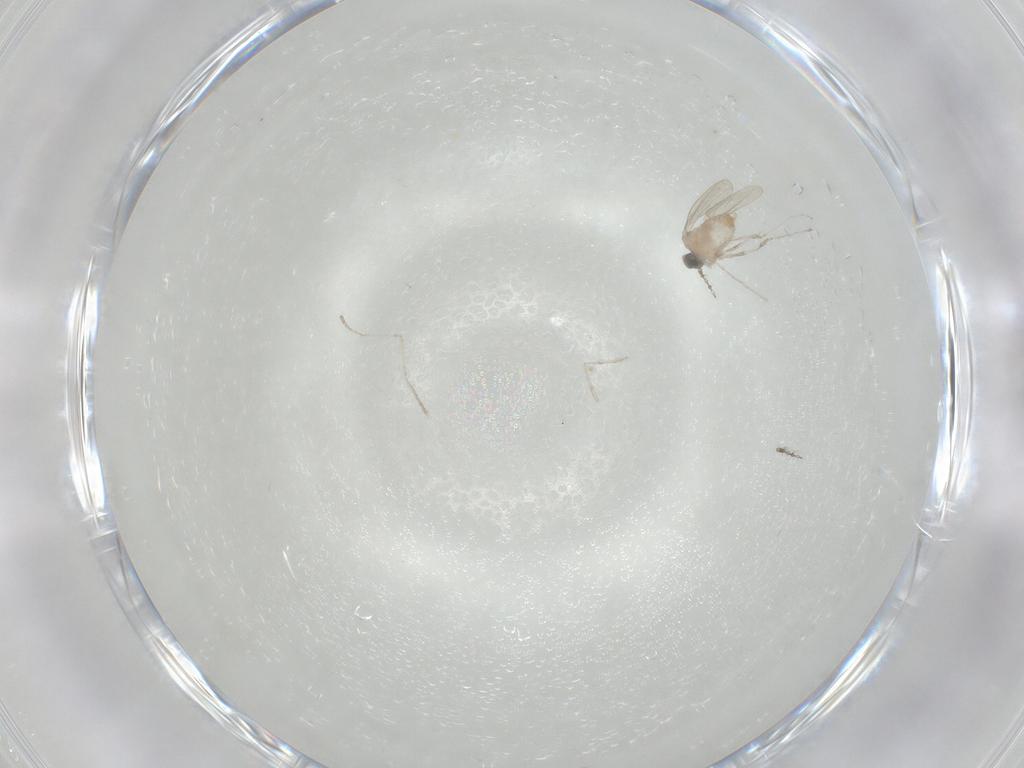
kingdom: Animalia
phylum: Arthropoda
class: Insecta
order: Diptera
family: Cecidomyiidae
